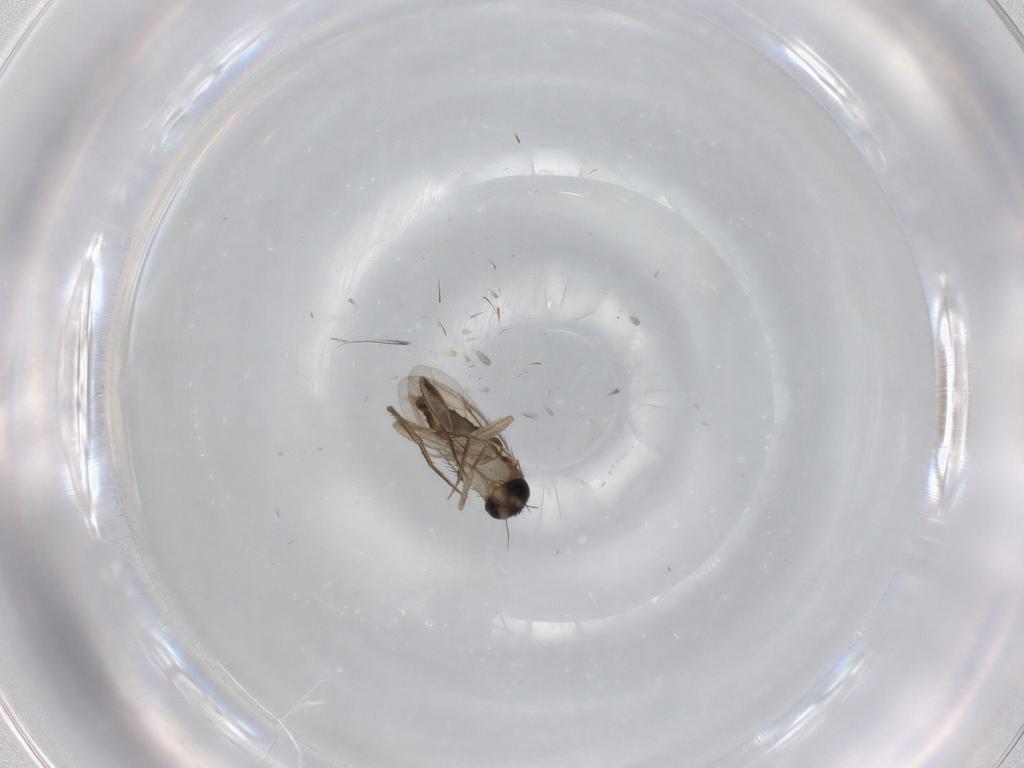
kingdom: Animalia
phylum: Arthropoda
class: Insecta
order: Diptera
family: Phoridae
